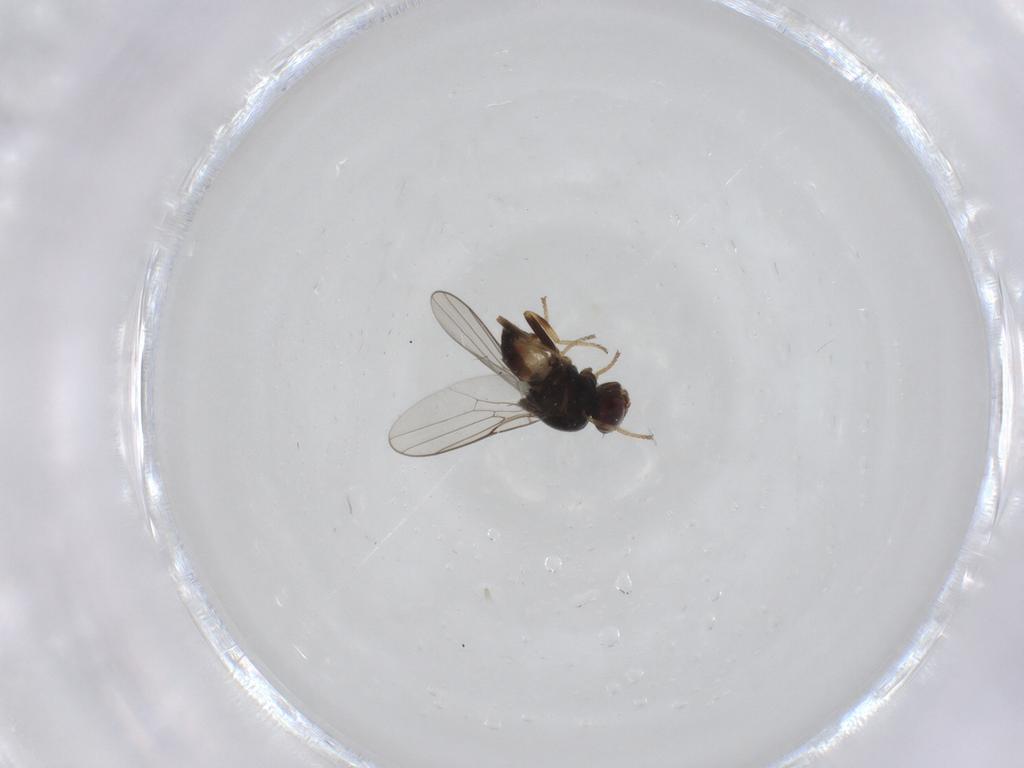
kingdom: Animalia
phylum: Arthropoda
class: Insecta
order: Diptera
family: Chloropidae
